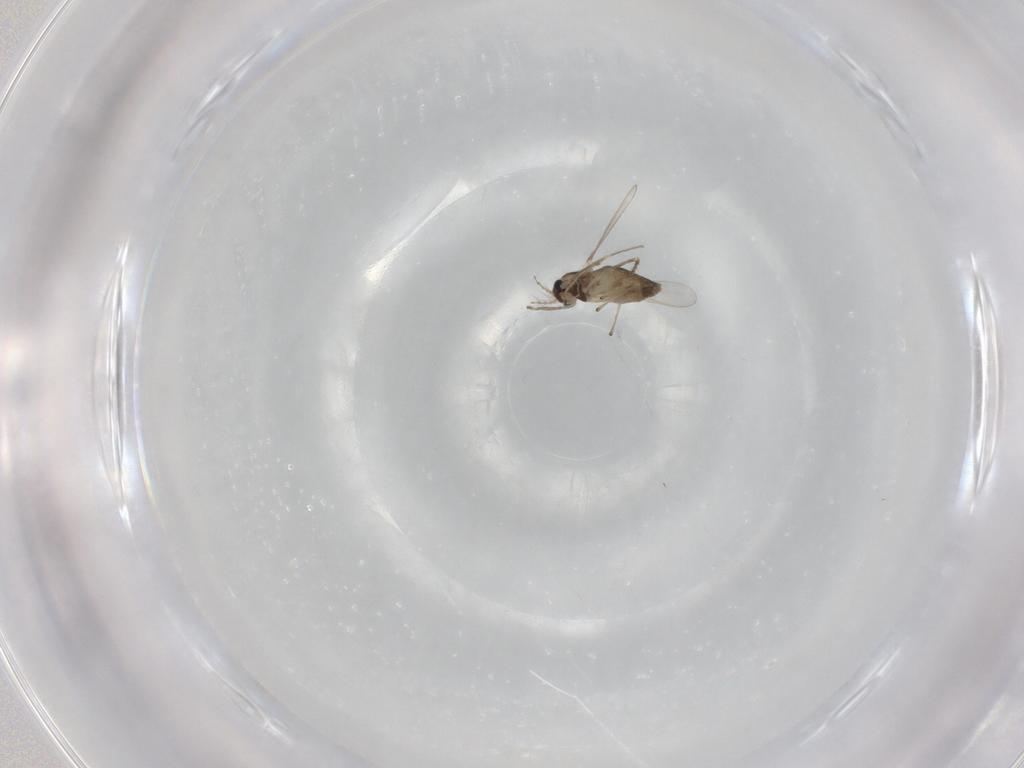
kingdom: Animalia
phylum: Arthropoda
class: Insecta
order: Diptera
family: Chironomidae
